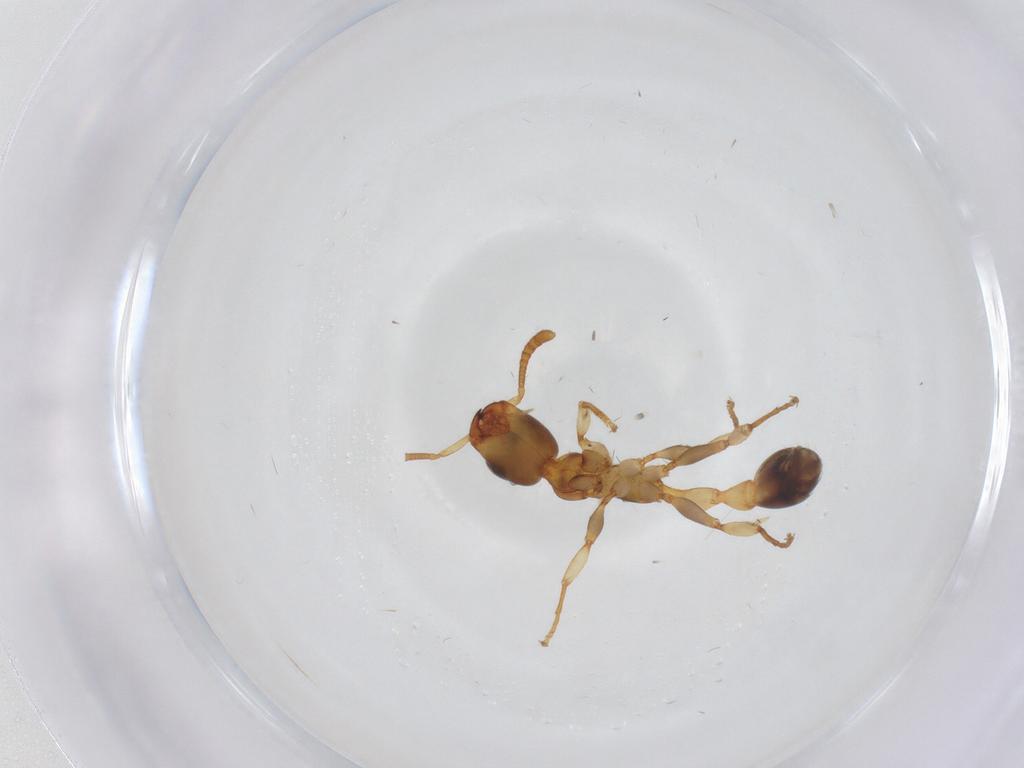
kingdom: Animalia
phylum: Arthropoda
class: Insecta
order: Hymenoptera
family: Formicidae
